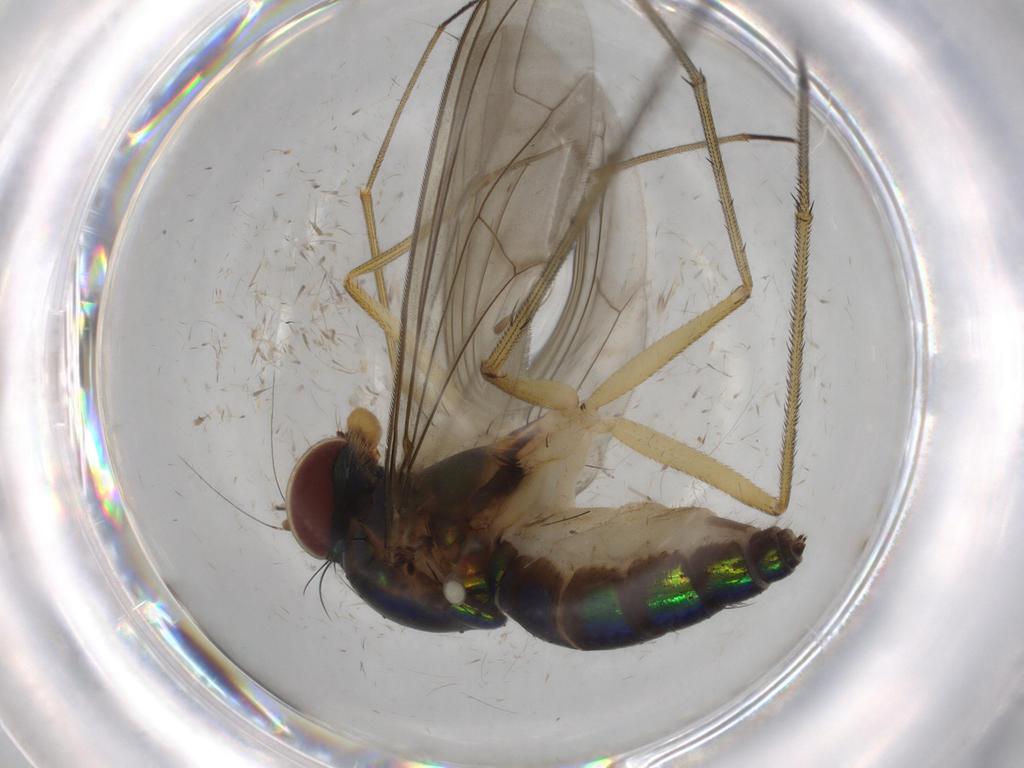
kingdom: Animalia
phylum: Arthropoda
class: Insecta
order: Diptera
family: Dolichopodidae
